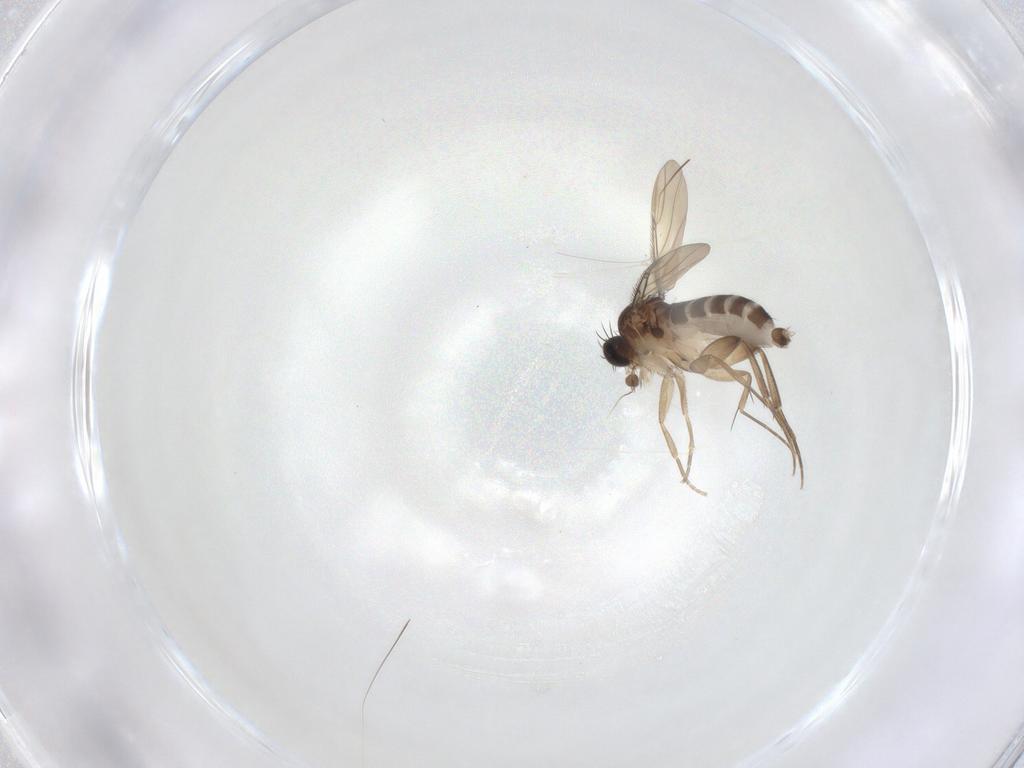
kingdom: Animalia
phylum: Arthropoda
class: Insecta
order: Diptera
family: Phoridae
